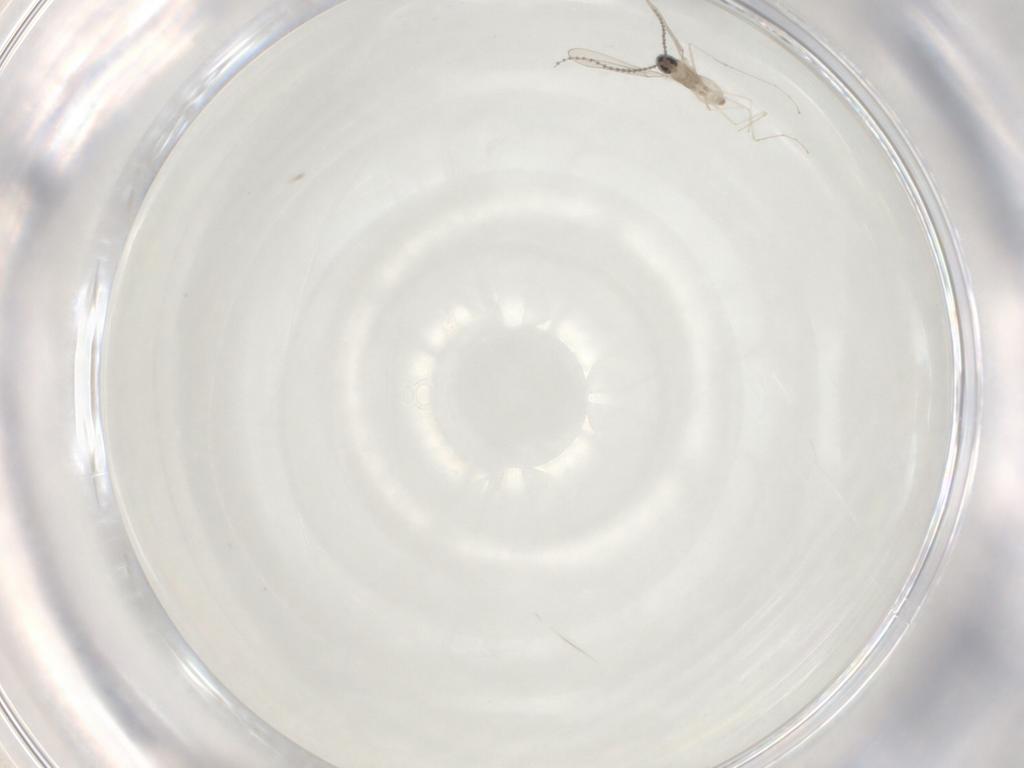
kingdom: Animalia
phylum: Arthropoda
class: Insecta
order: Diptera
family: Cecidomyiidae
